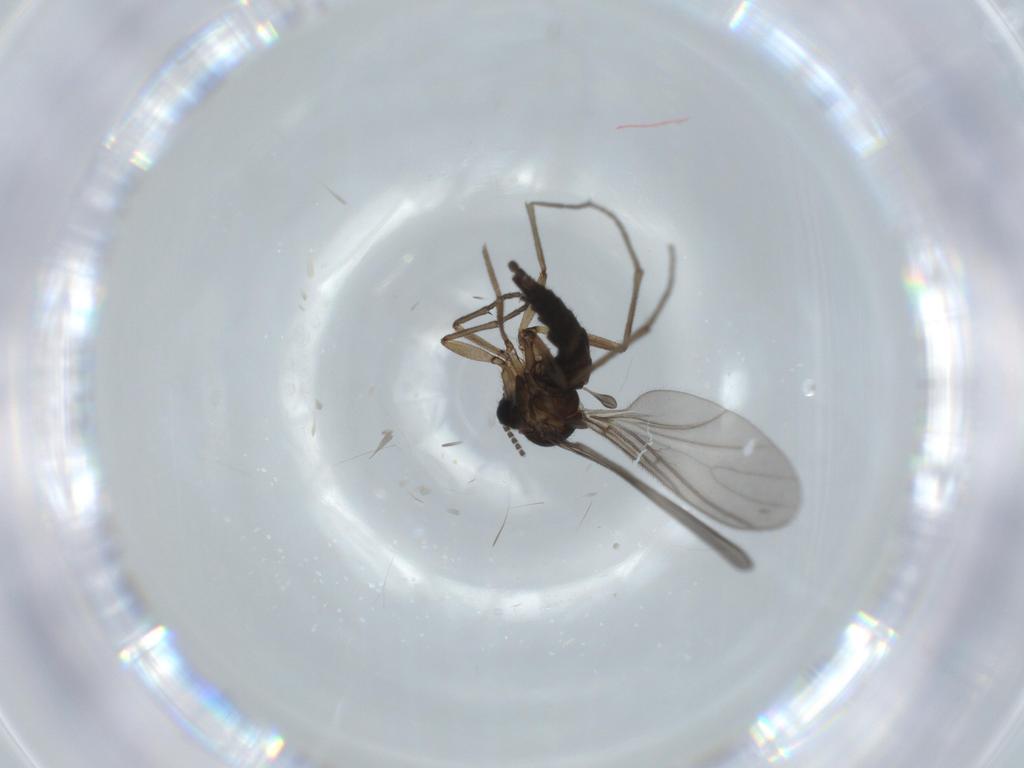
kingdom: Animalia
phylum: Arthropoda
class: Insecta
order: Diptera
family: Sciaridae
